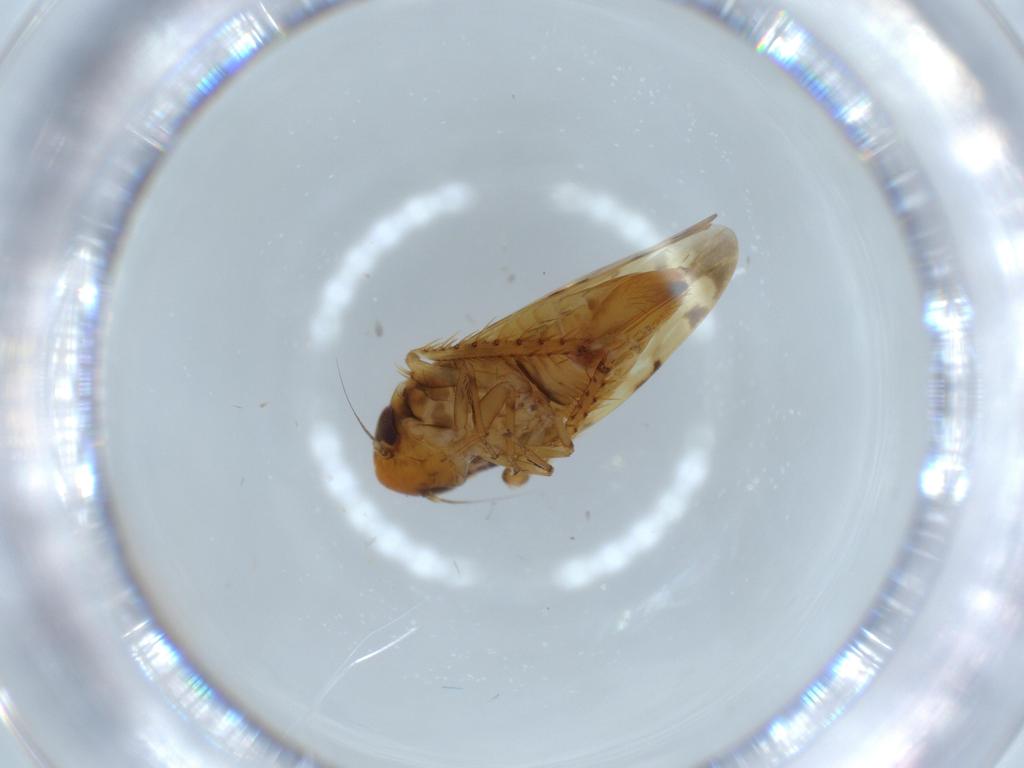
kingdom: Animalia
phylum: Arthropoda
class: Insecta
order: Hemiptera
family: Cicadellidae
